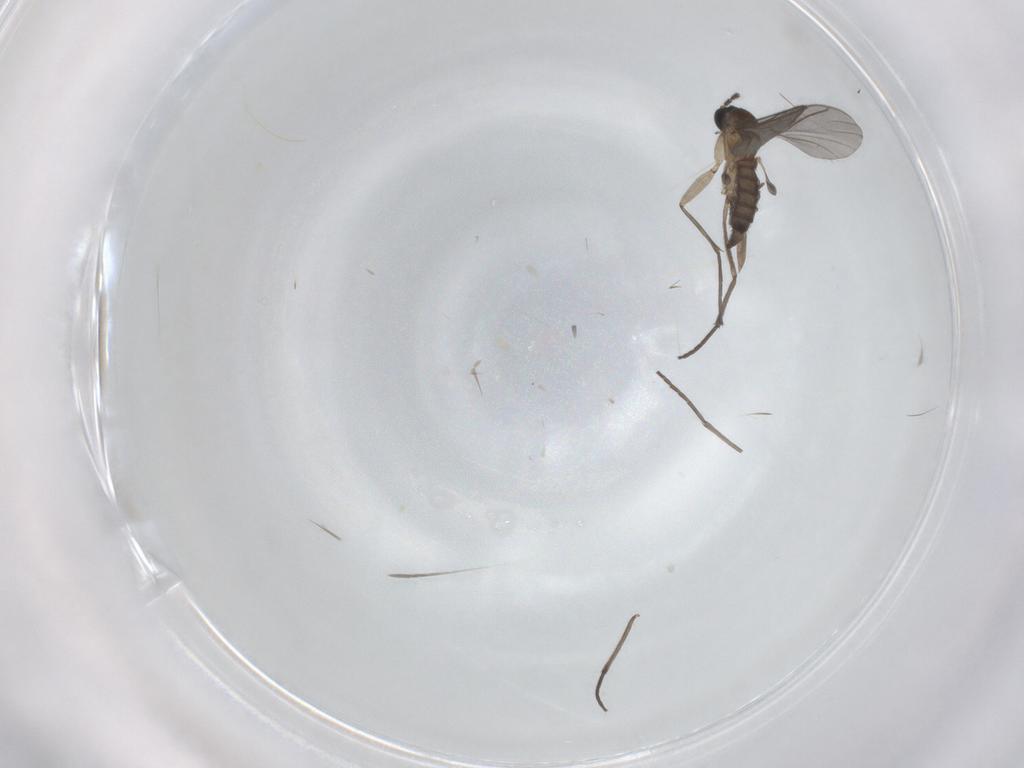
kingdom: Animalia
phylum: Arthropoda
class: Insecta
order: Diptera
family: Sciaridae
